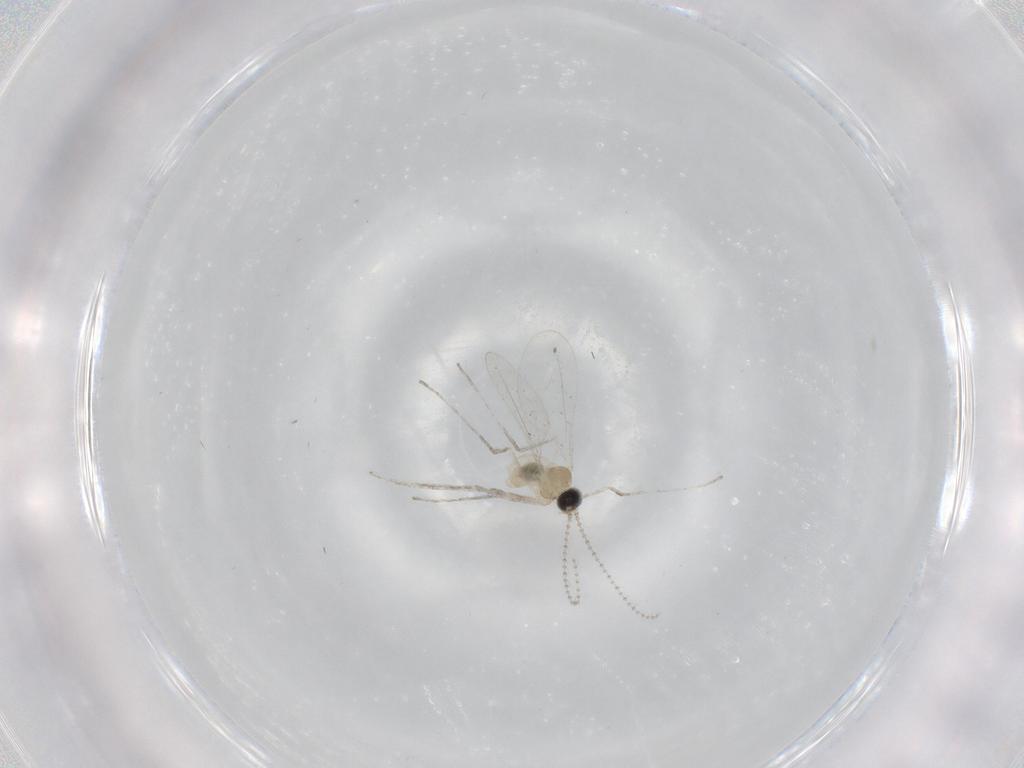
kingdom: Animalia
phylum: Arthropoda
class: Insecta
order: Diptera
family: Cecidomyiidae
